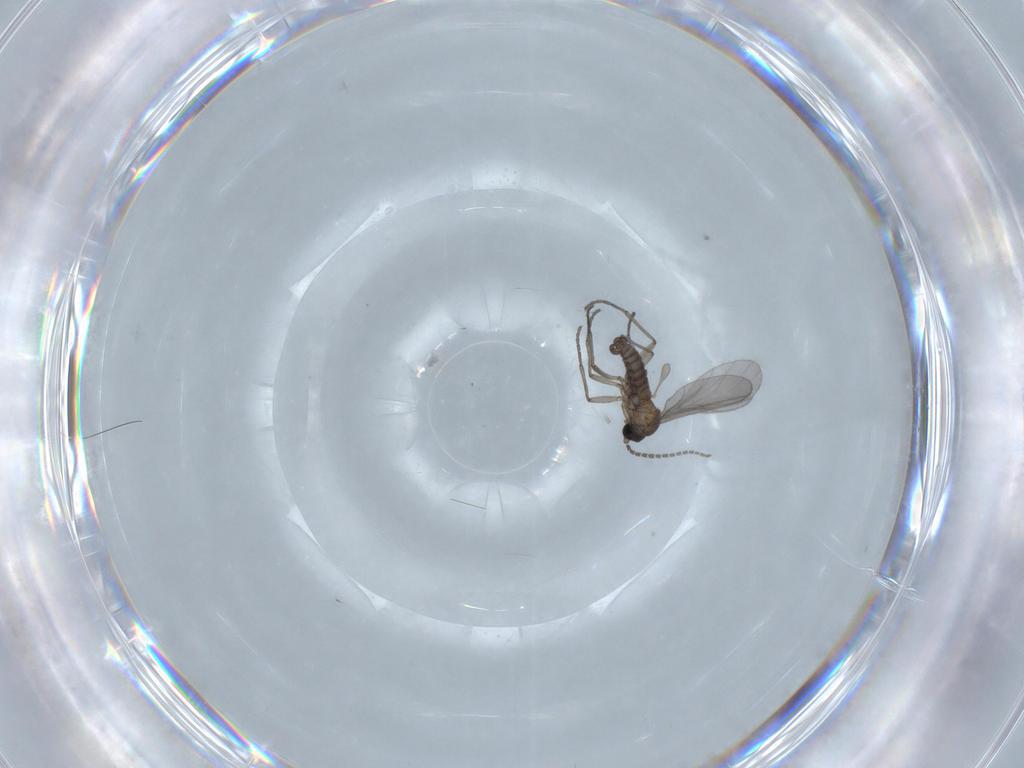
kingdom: Animalia
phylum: Arthropoda
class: Insecta
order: Diptera
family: Sciaridae
